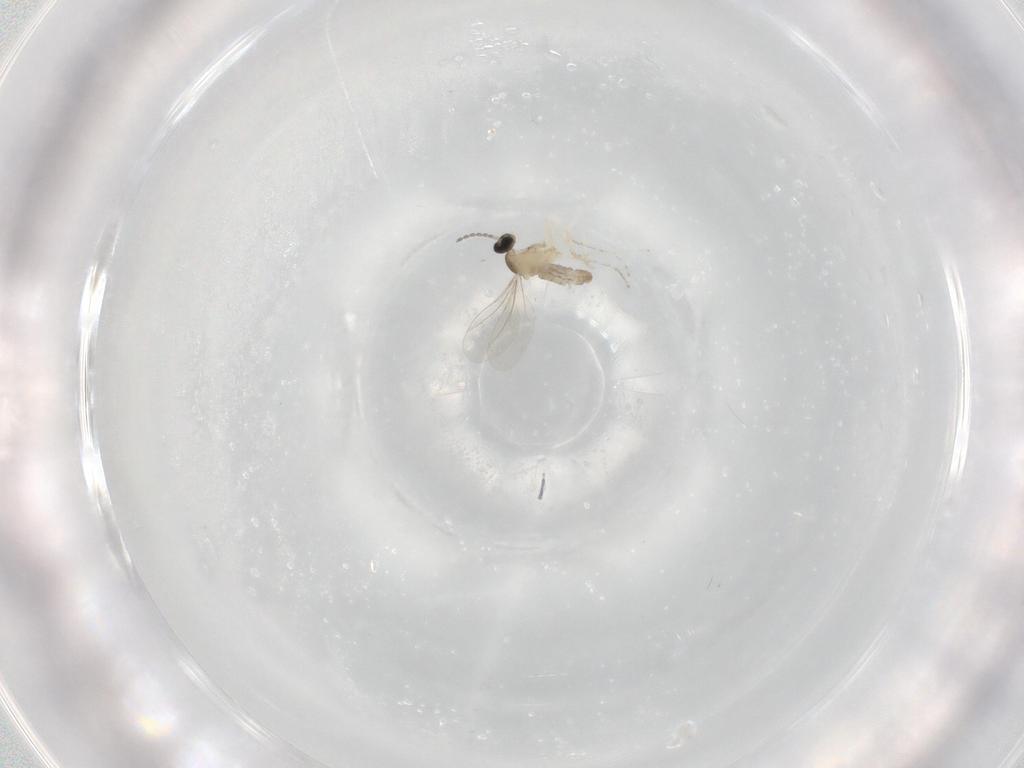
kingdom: Animalia
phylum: Arthropoda
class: Insecta
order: Diptera
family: Cecidomyiidae
